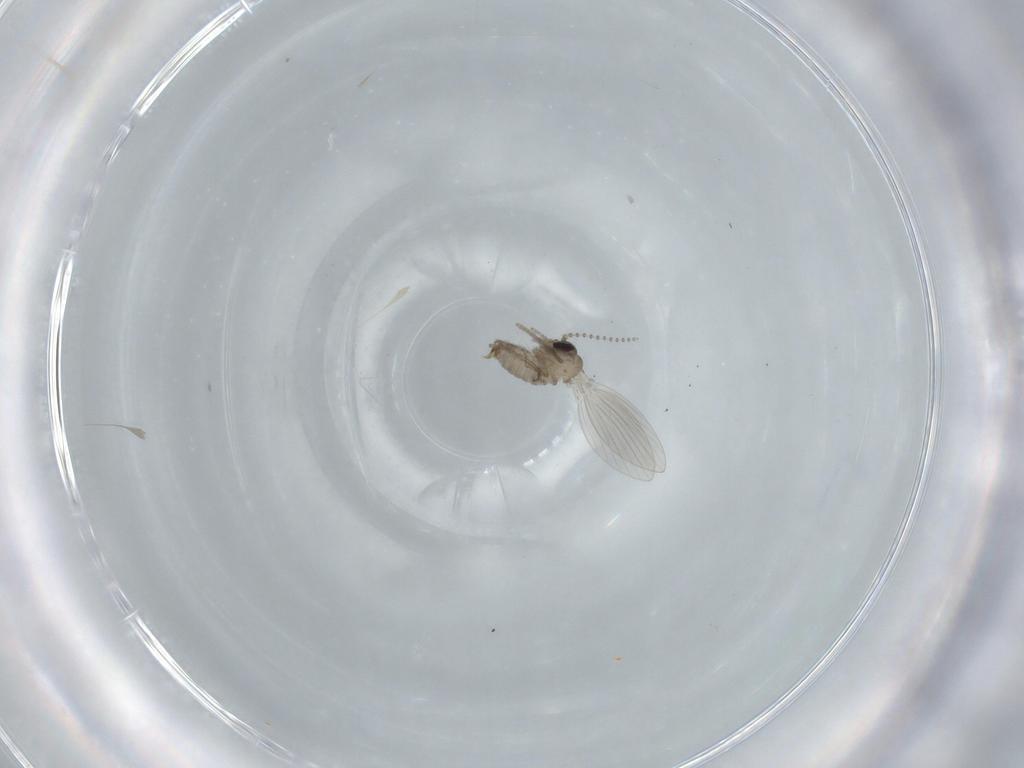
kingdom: Animalia
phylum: Arthropoda
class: Insecta
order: Diptera
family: Psychodidae
